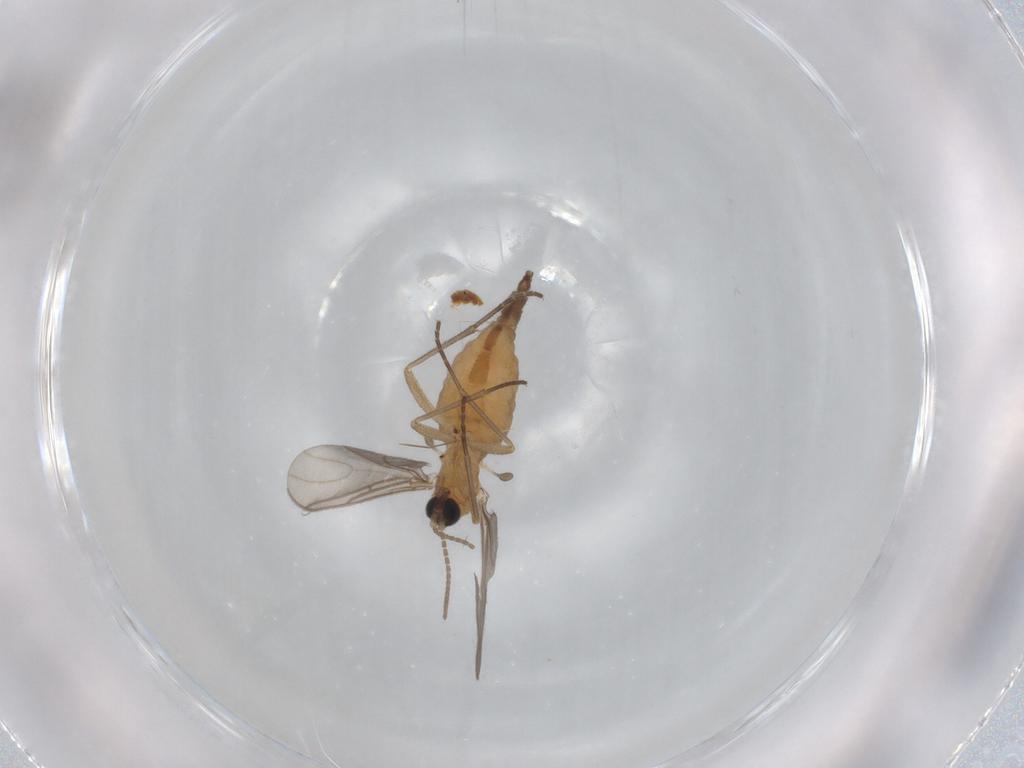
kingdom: Animalia
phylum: Arthropoda
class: Insecta
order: Diptera
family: Sciaridae
